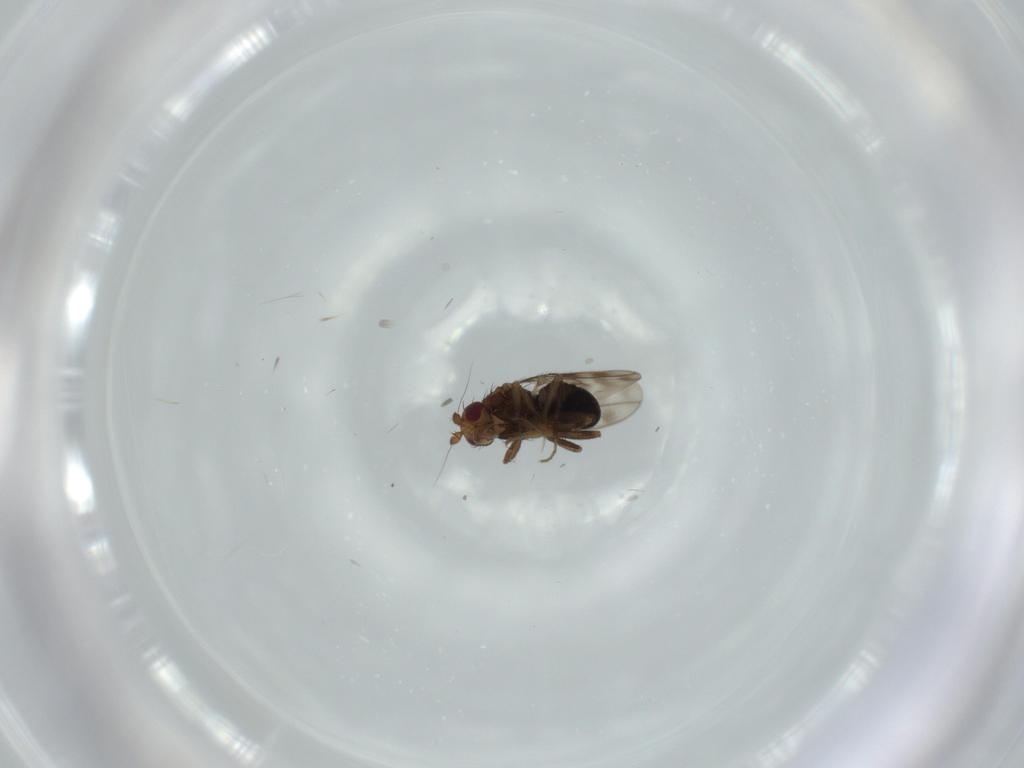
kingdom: Animalia
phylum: Arthropoda
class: Insecta
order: Diptera
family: Sphaeroceridae
